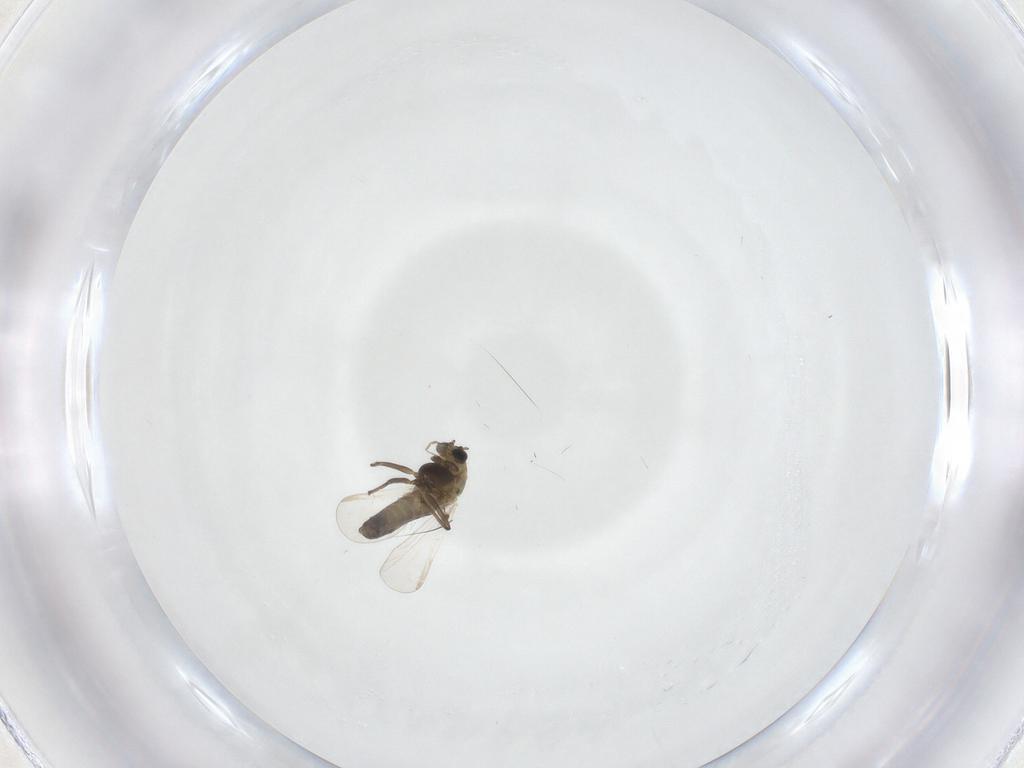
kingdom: Animalia
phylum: Arthropoda
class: Insecta
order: Diptera
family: Chironomidae
